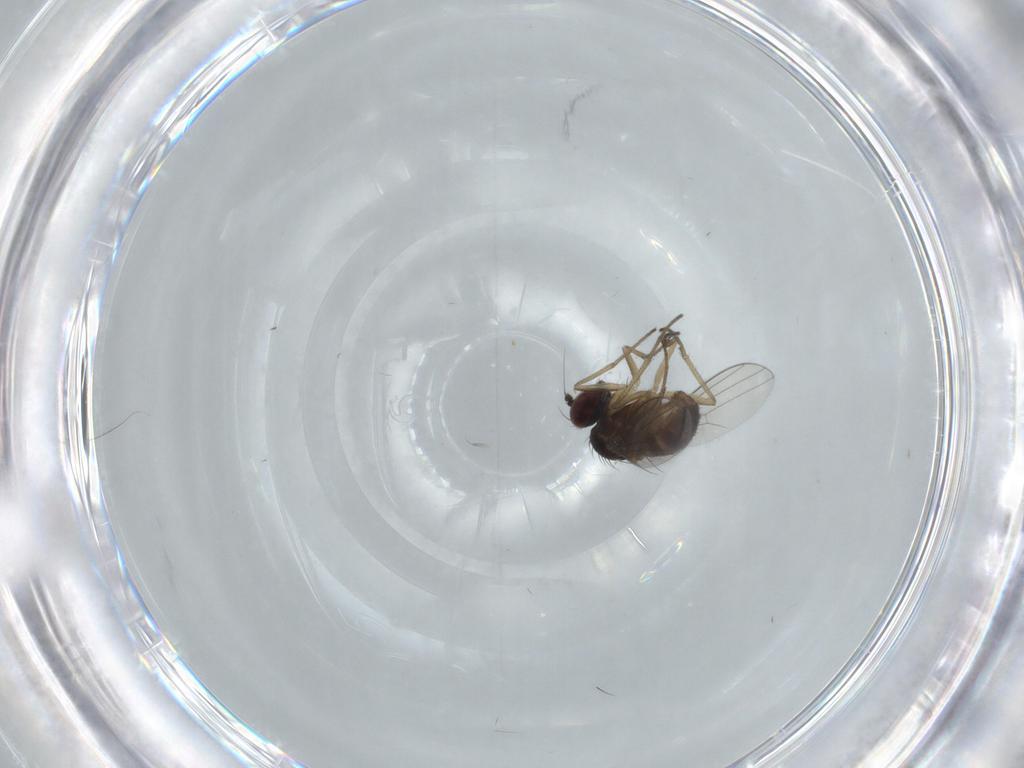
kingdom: Animalia
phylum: Arthropoda
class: Insecta
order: Diptera
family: Dolichopodidae
